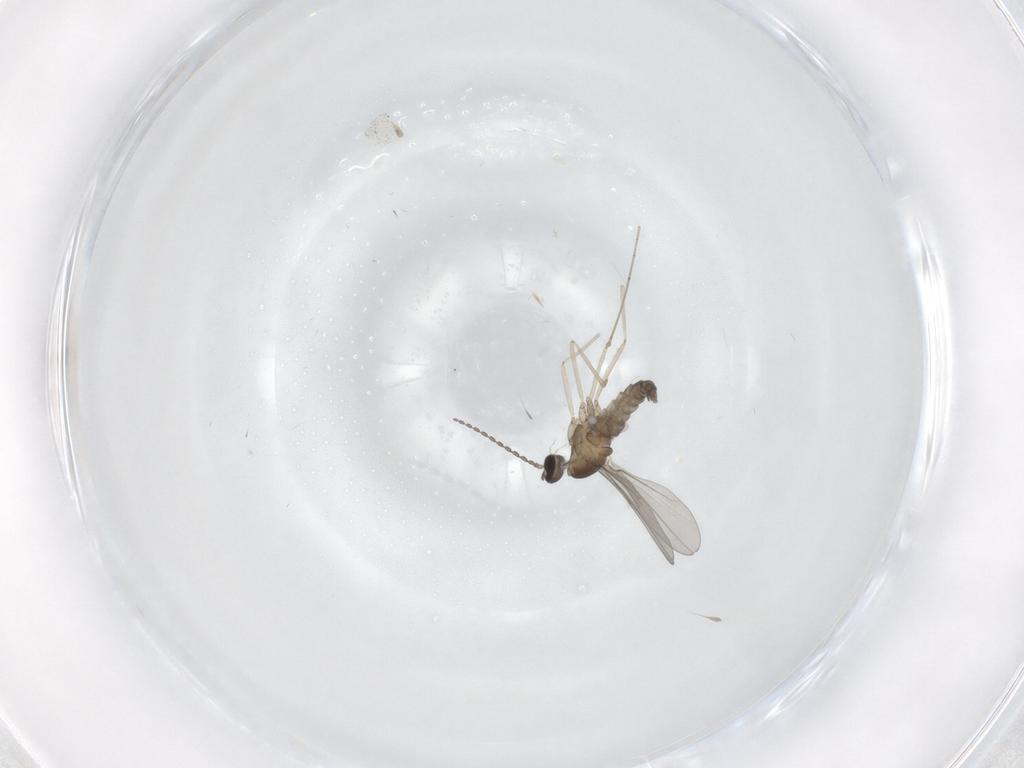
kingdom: Animalia
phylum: Arthropoda
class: Insecta
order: Diptera
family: Cecidomyiidae
